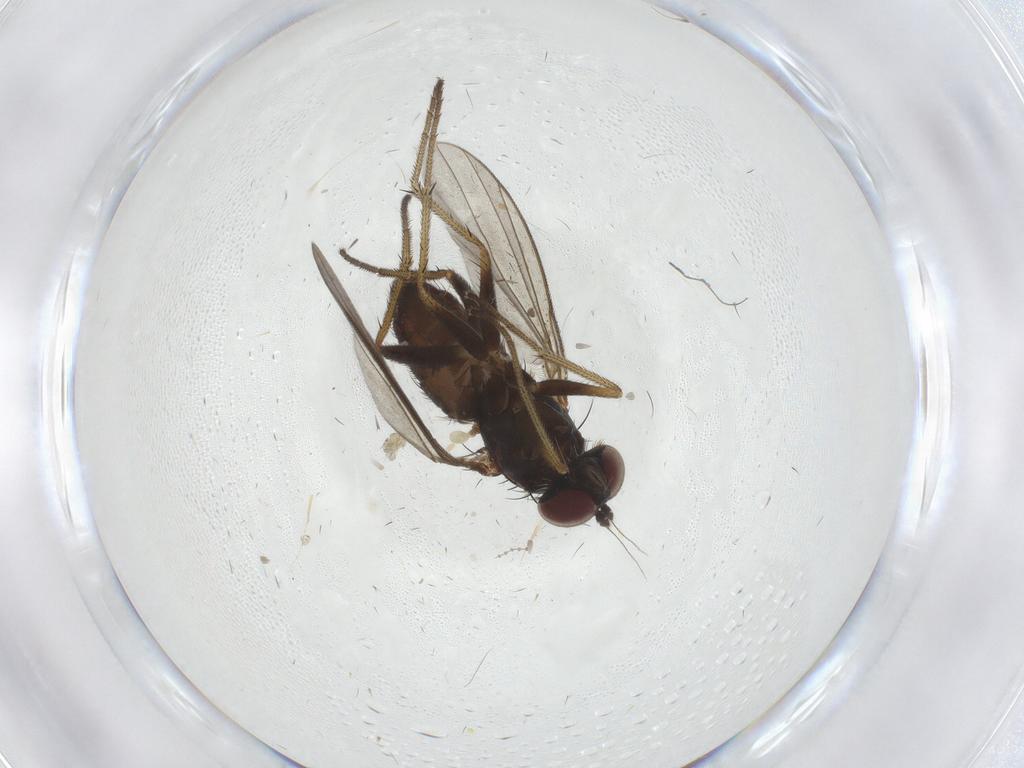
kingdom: Animalia
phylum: Arthropoda
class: Insecta
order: Diptera
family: Dolichopodidae
